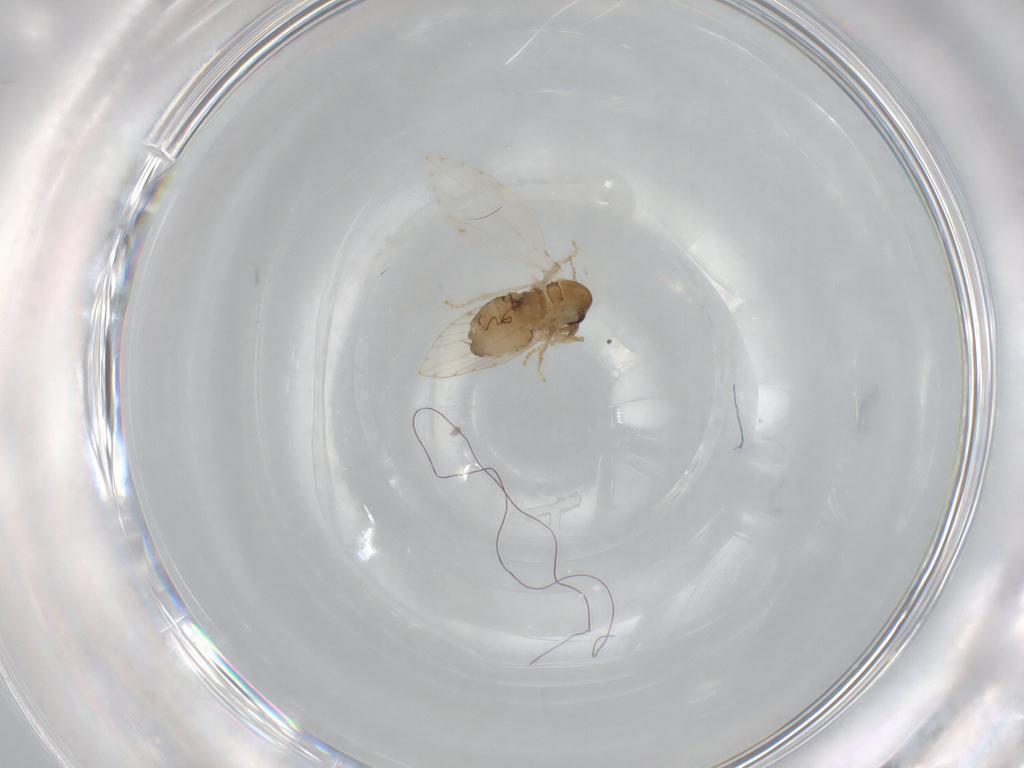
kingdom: Animalia
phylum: Arthropoda
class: Insecta
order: Diptera
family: Psychodidae
